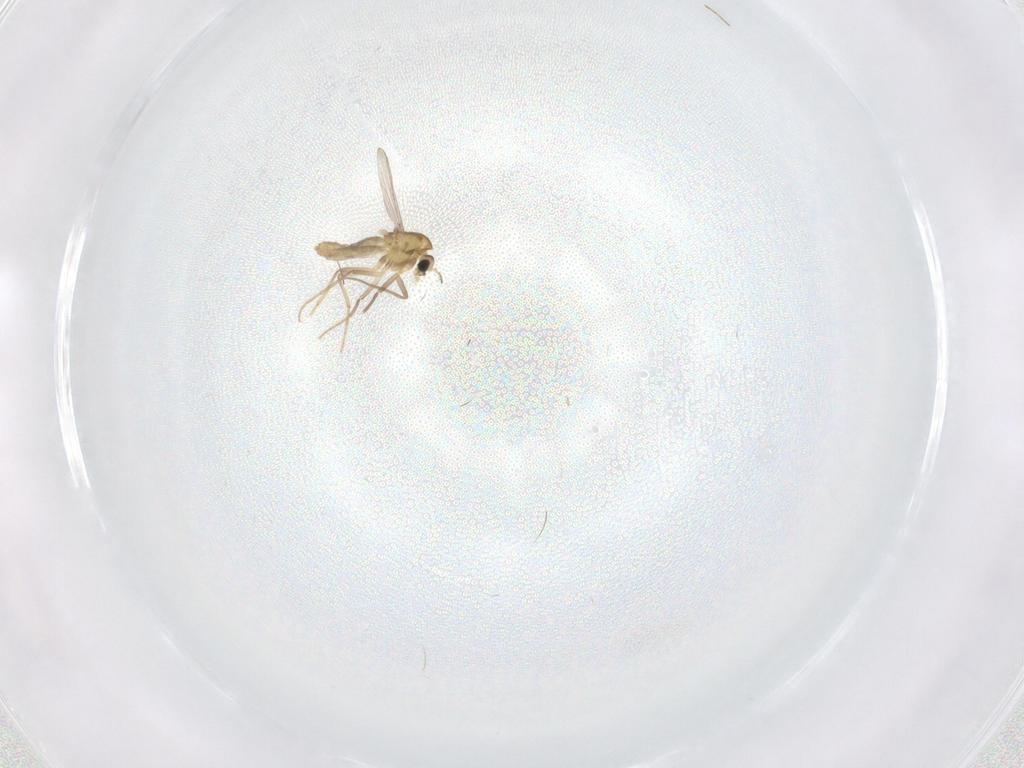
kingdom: Animalia
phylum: Arthropoda
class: Insecta
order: Diptera
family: Chironomidae
